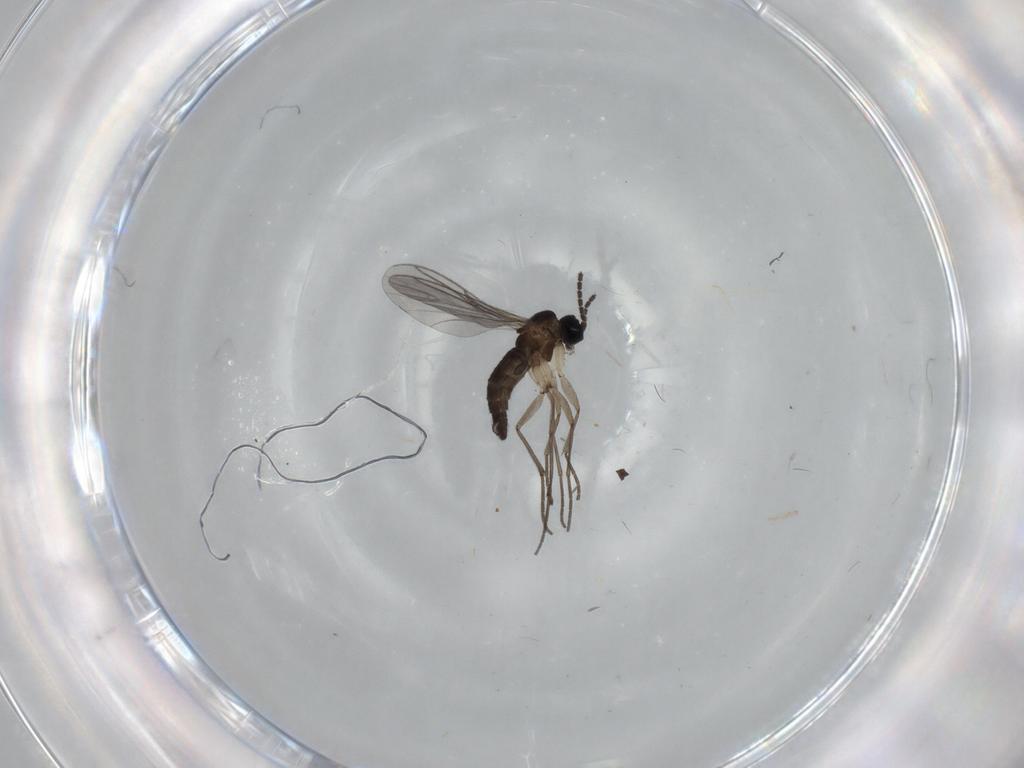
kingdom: Animalia
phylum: Arthropoda
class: Insecta
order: Diptera
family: Sciaridae
